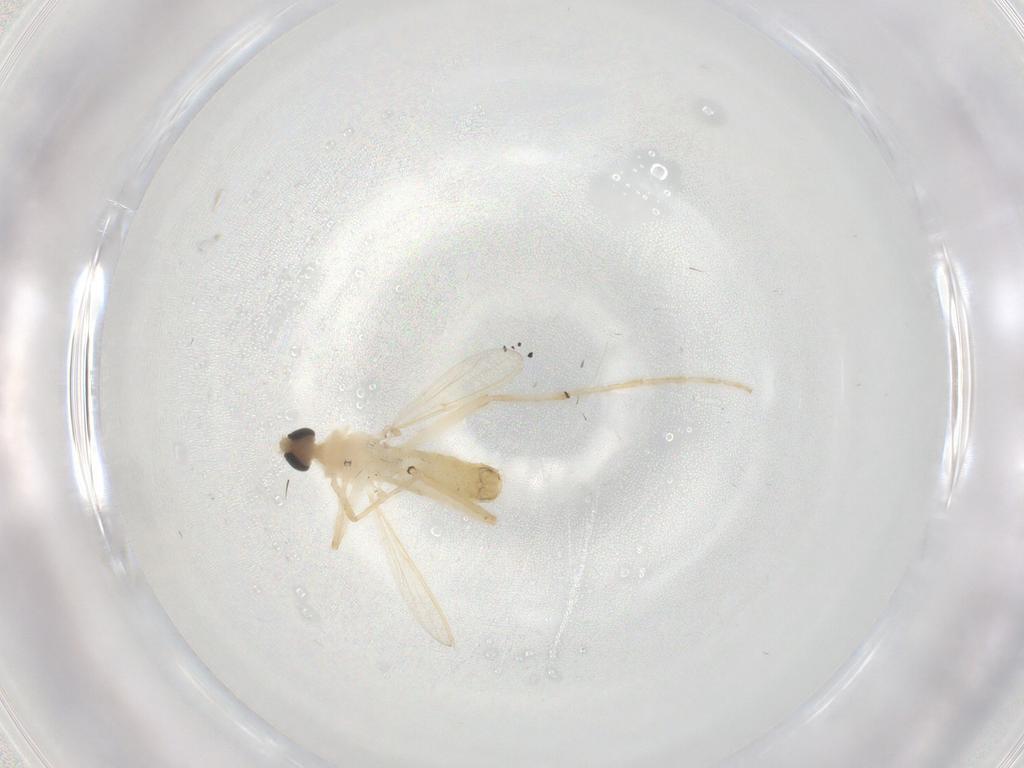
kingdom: Animalia
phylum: Arthropoda
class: Insecta
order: Diptera
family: Chironomidae
